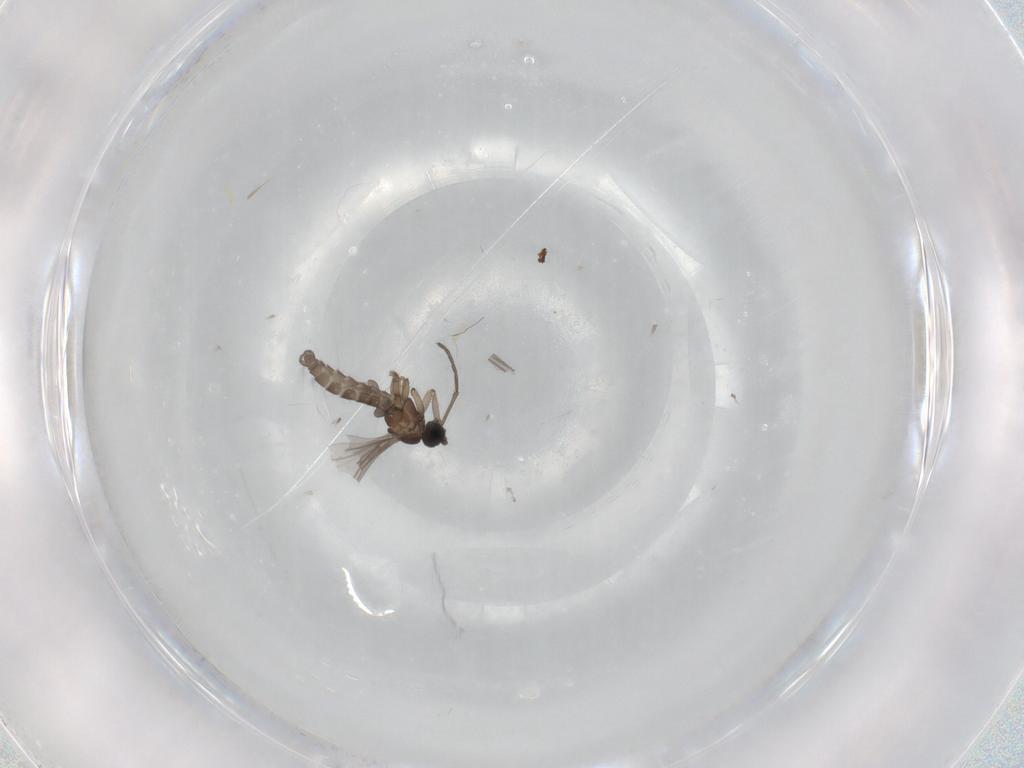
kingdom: Animalia
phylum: Arthropoda
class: Insecta
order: Diptera
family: Sciaridae
